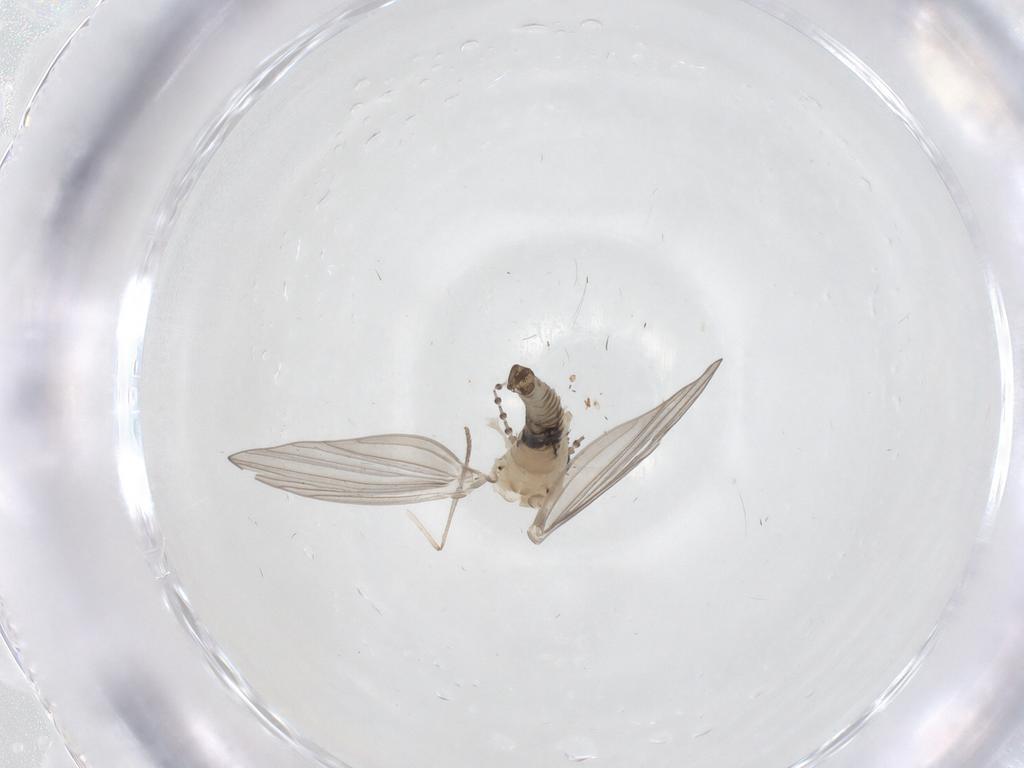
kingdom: Animalia
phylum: Arthropoda
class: Insecta
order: Diptera
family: Psychodidae
